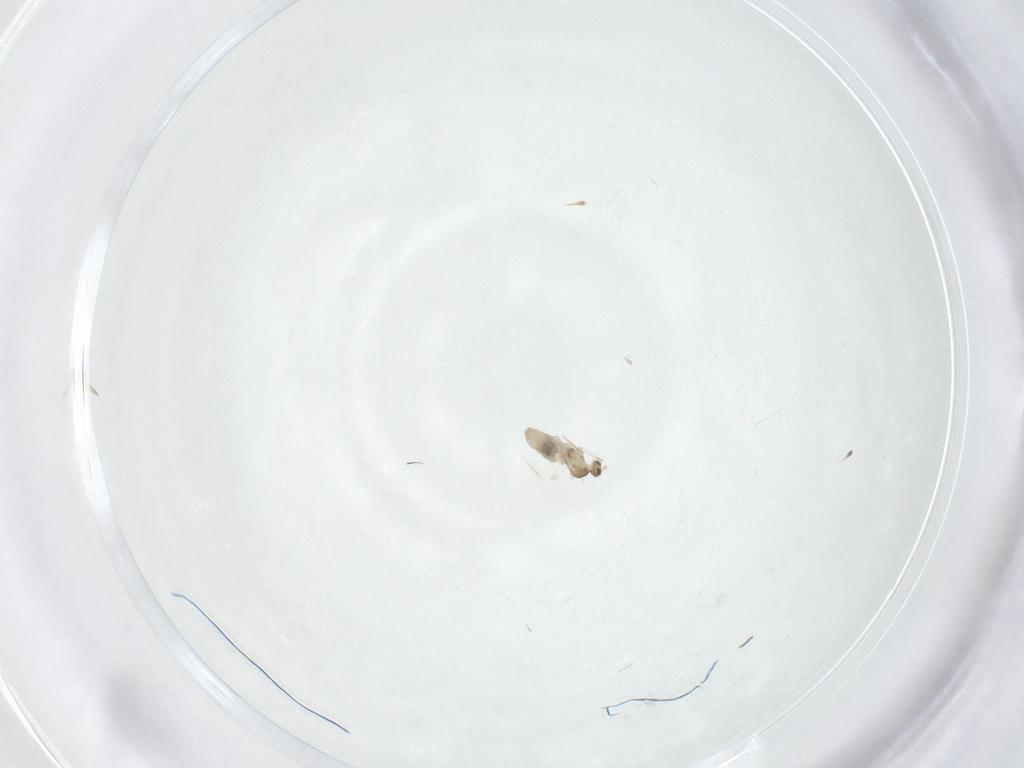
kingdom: Animalia
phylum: Arthropoda
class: Insecta
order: Diptera
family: Cecidomyiidae
